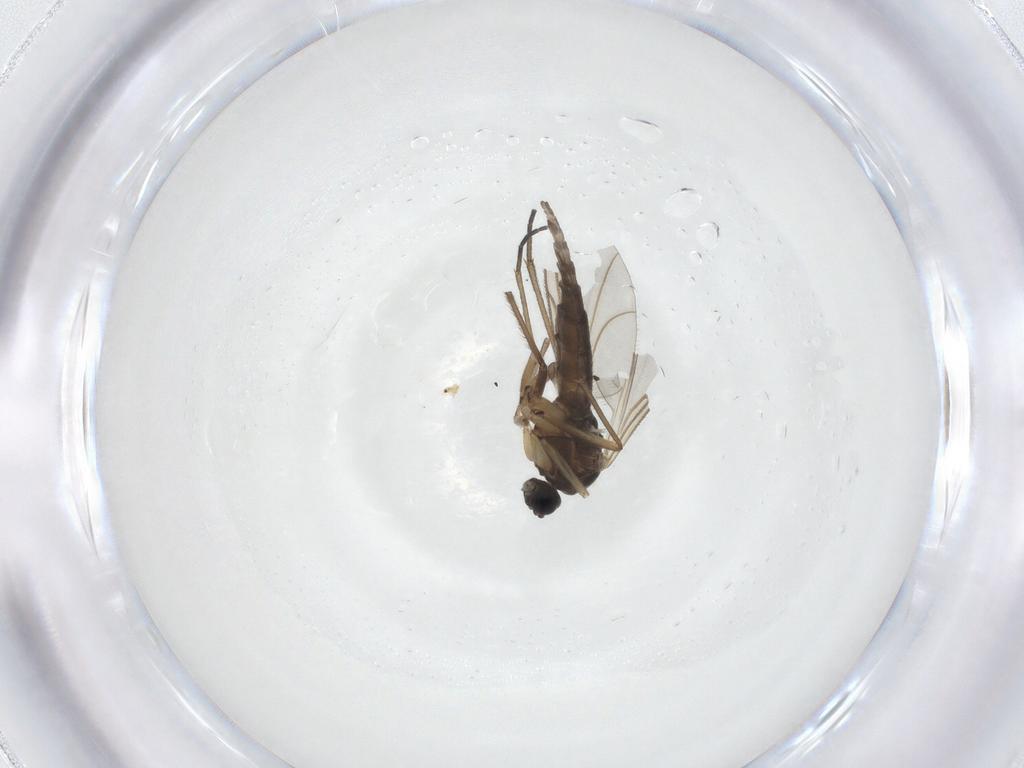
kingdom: Animalia
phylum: Arthropoda
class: Insecta
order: Diptera
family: Sciaridae
